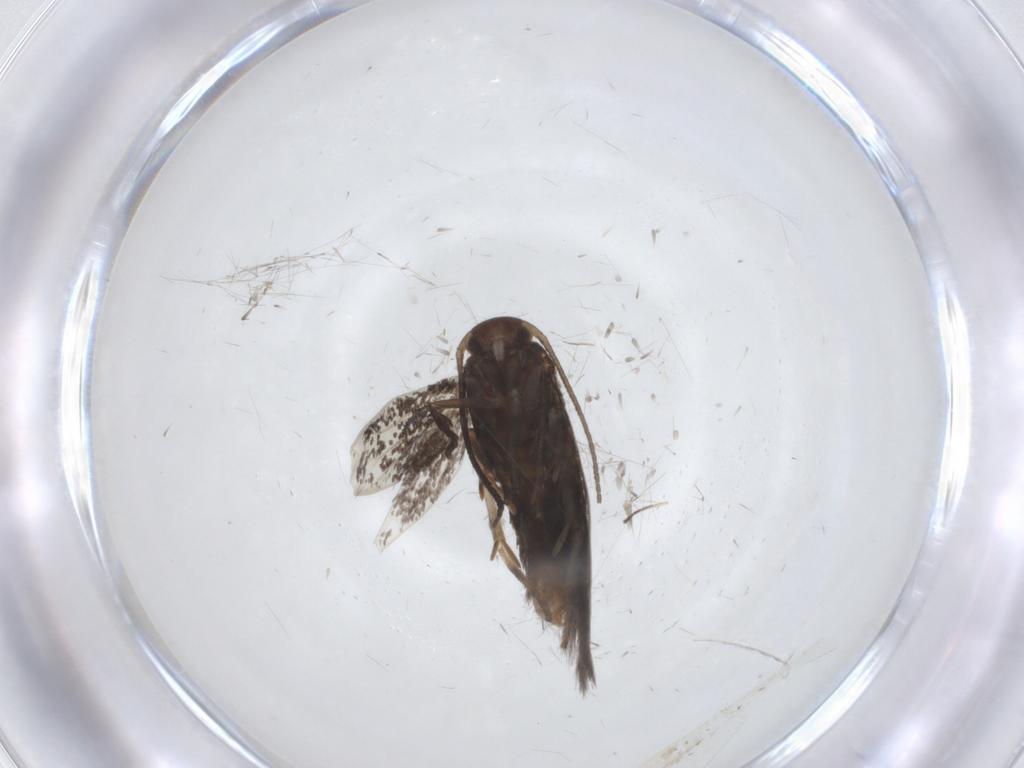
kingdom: Animalia
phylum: Arthropoda
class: Insecta
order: Lepidoptera
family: Elachistidae
